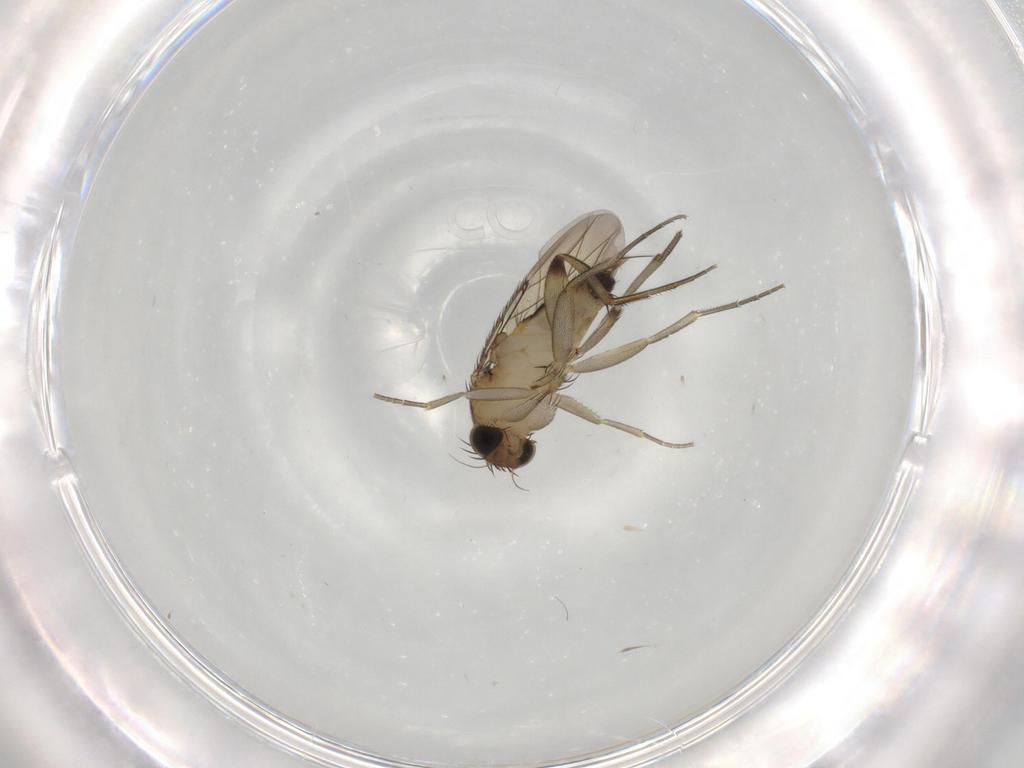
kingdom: Animalia
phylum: Arthropoda
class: Insecta
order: Diptera
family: Phoridae
